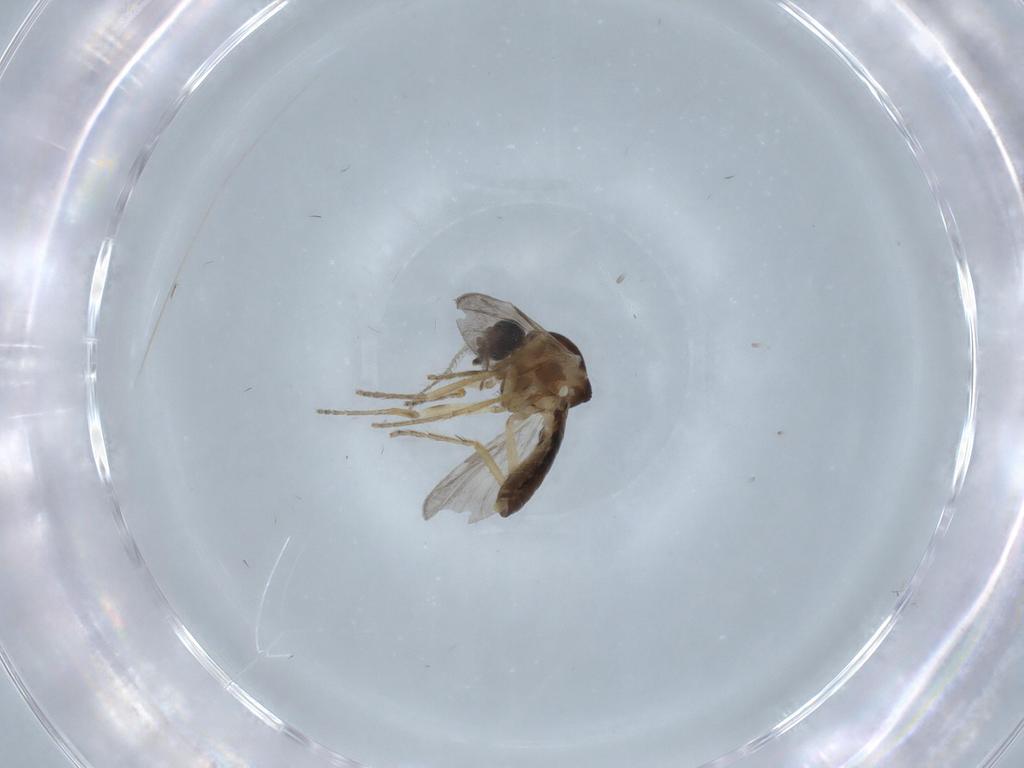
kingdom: Animalia
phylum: Arthropoda
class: Insecta
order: Diptera
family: Ceratopogonidae
